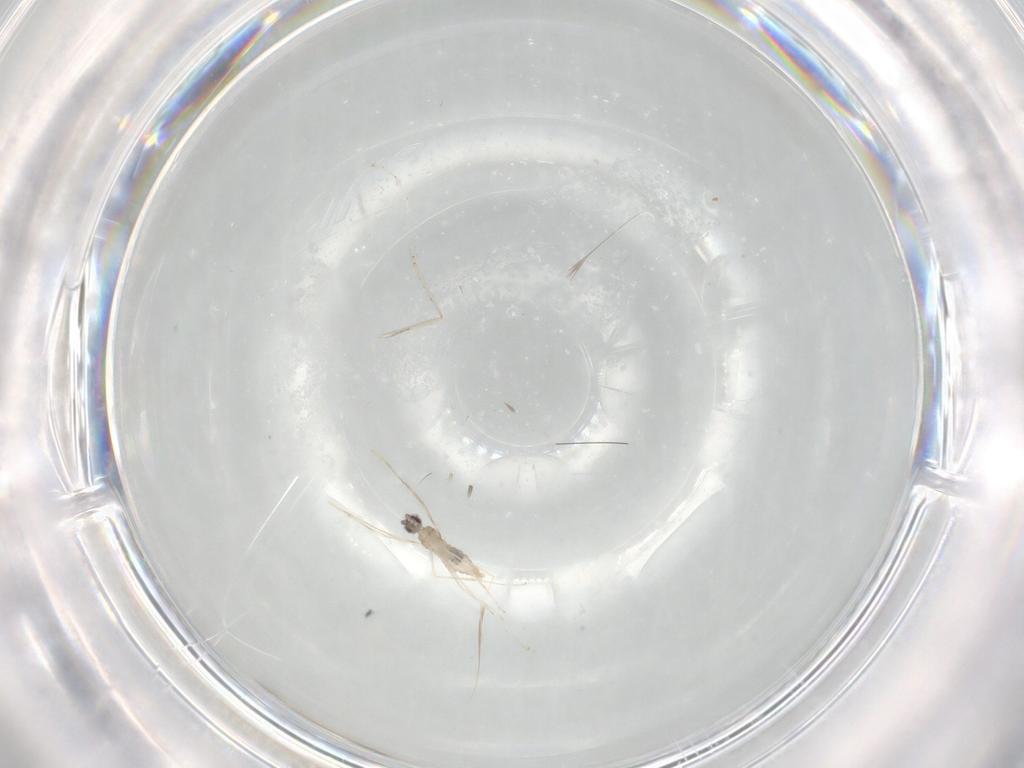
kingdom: Animalia
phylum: Arthropoda
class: Insecta
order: Diptera
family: Cecidomyiidae
